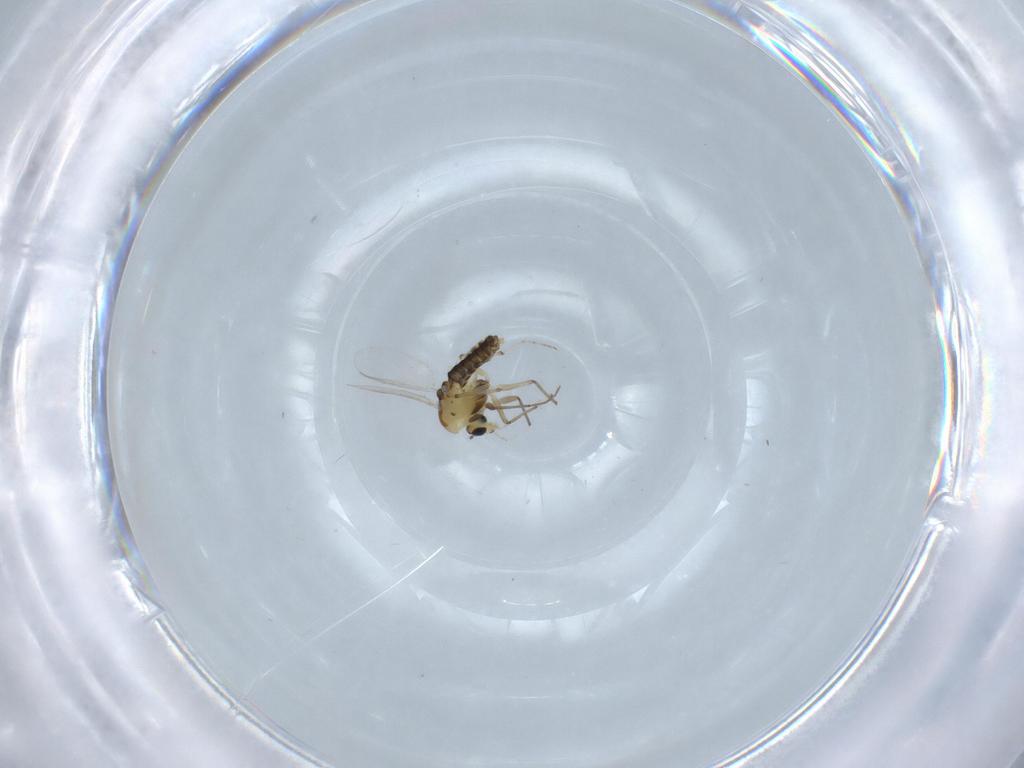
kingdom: Animalia
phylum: Arthropoda
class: Insecta
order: Diptera
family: Chironomidae
